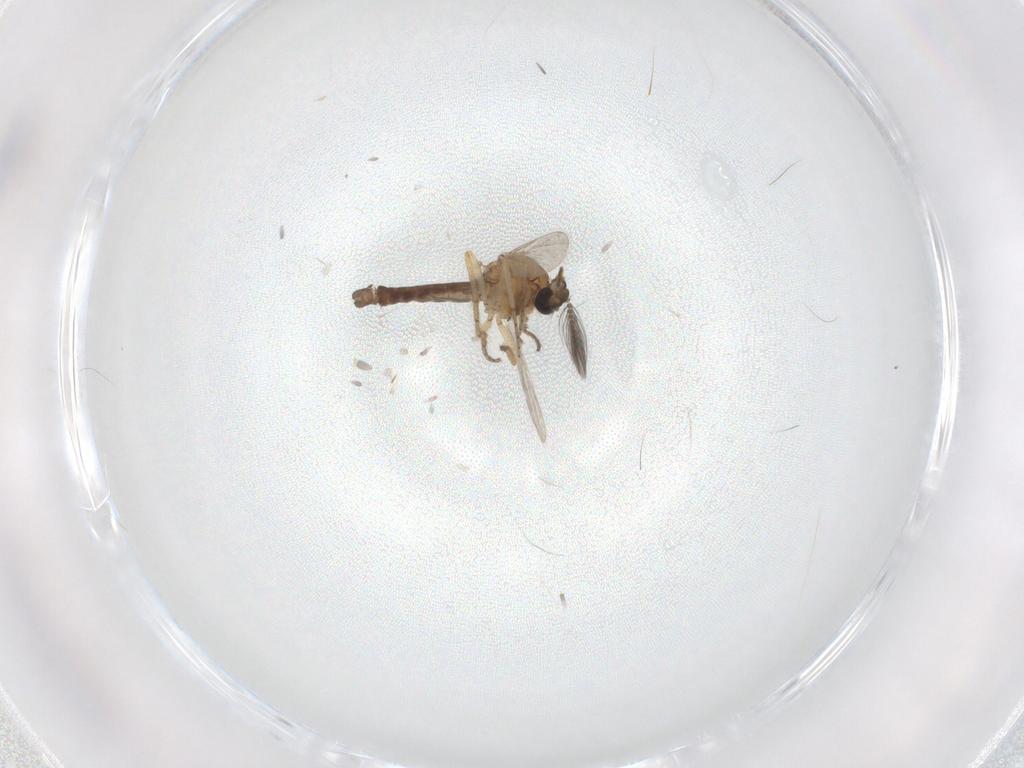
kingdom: Animalia
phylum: Arthropoda
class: Insecta
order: Diptera
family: Ceratopogonidae
